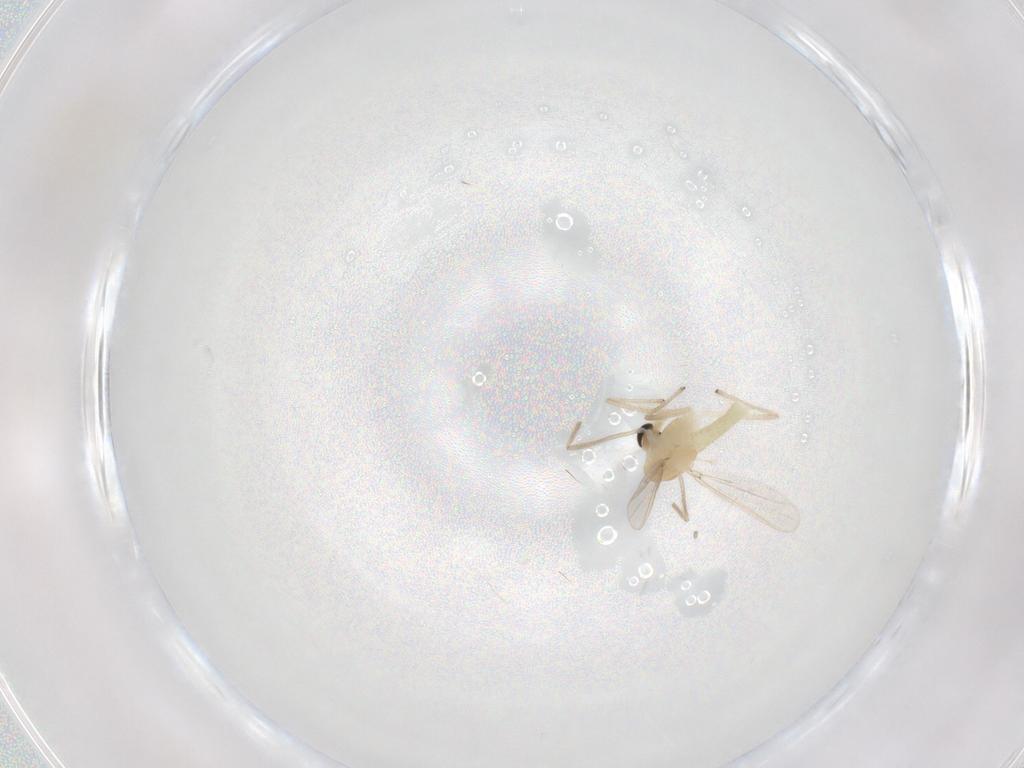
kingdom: Animalia
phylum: Arthropoda
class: Insecta
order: Diptera
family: Chironomidae
